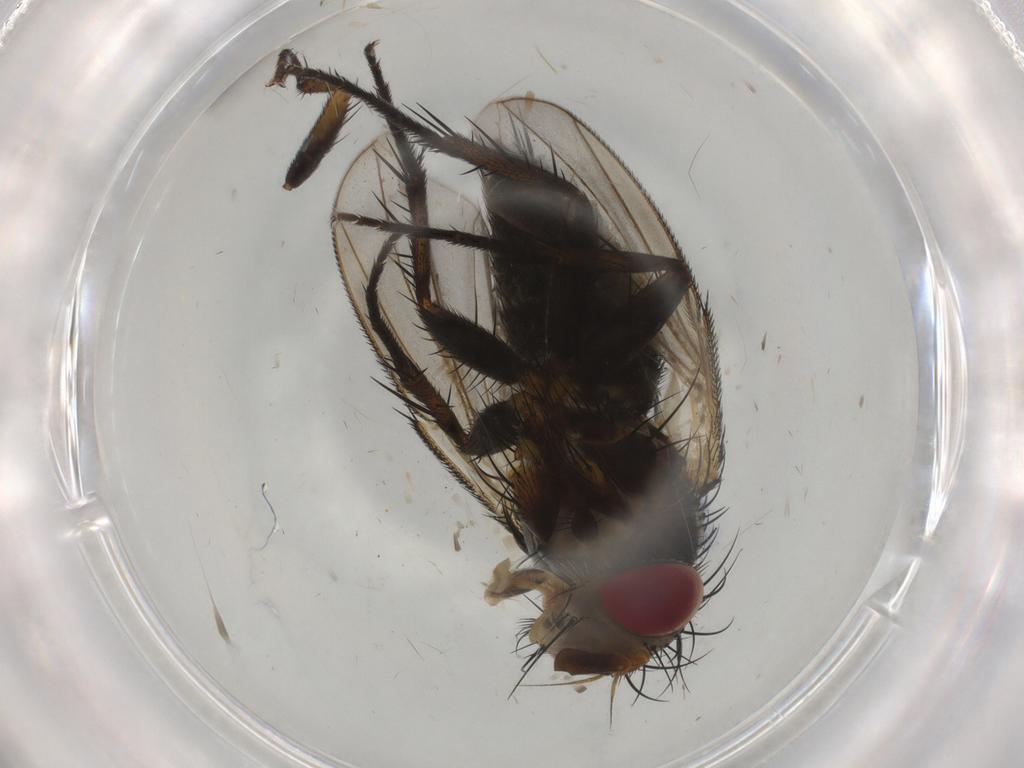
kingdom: Animalia
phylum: Arthropoda
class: Insecta
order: Diptera
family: Tachinidae
